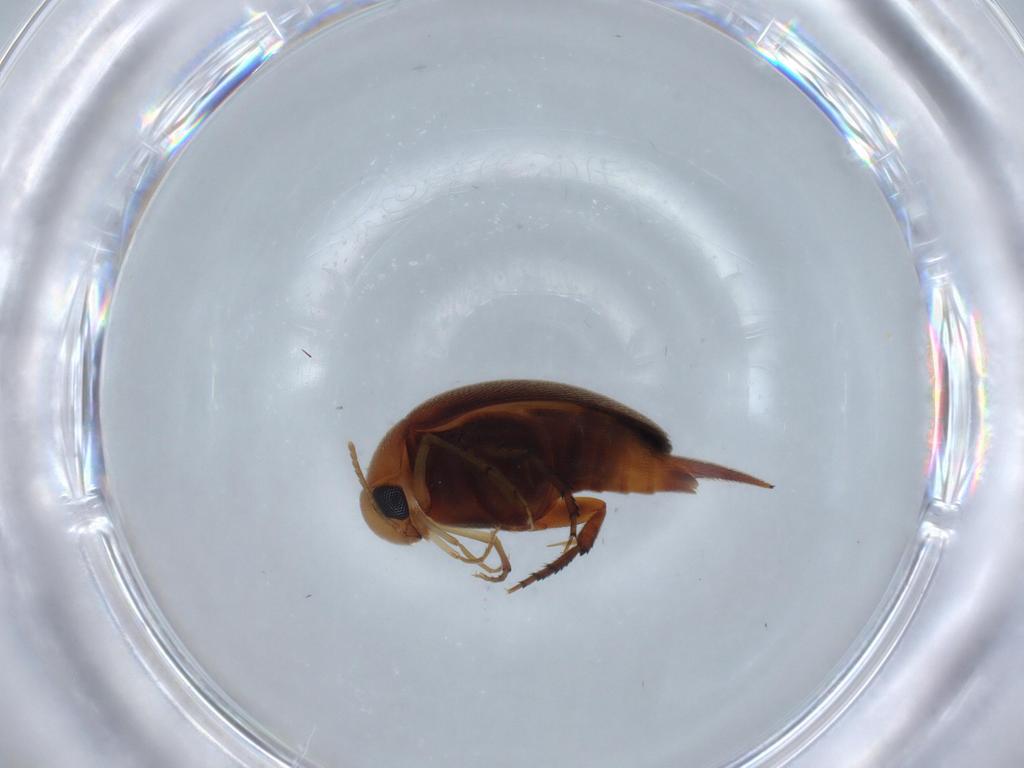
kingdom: Animalia
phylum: Arthropoda
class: Insecta
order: Coleoptera
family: Mordellidae
